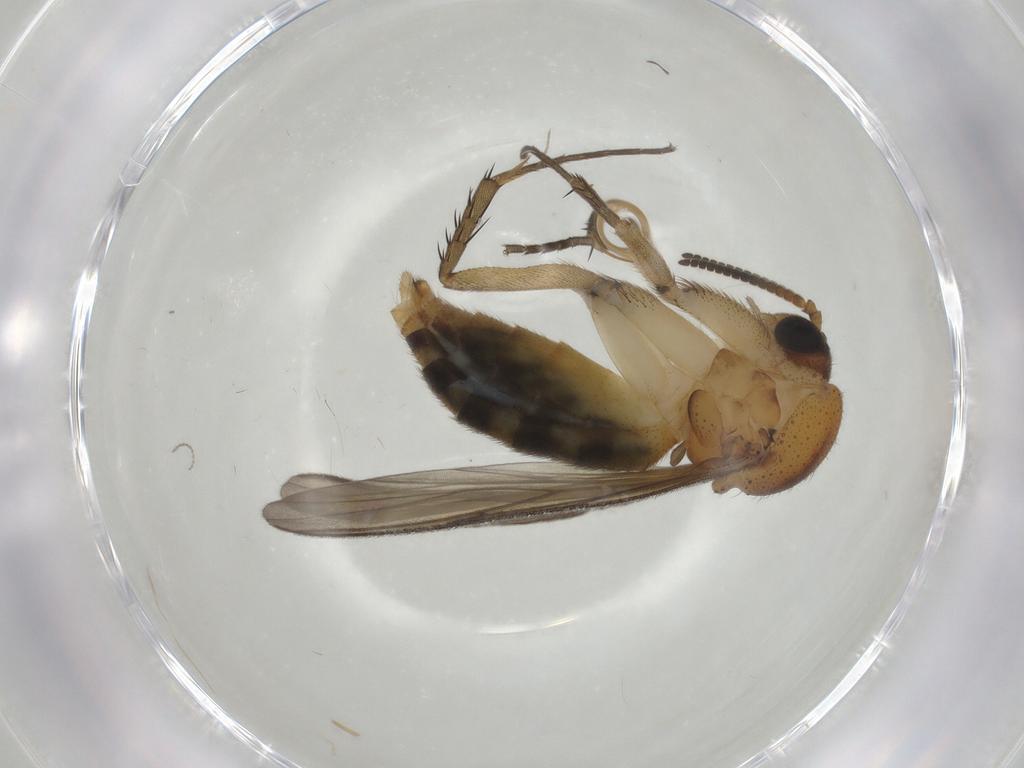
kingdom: Animalia
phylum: Arthropoda
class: Insecta
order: Diptera
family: Mycetophilidae
